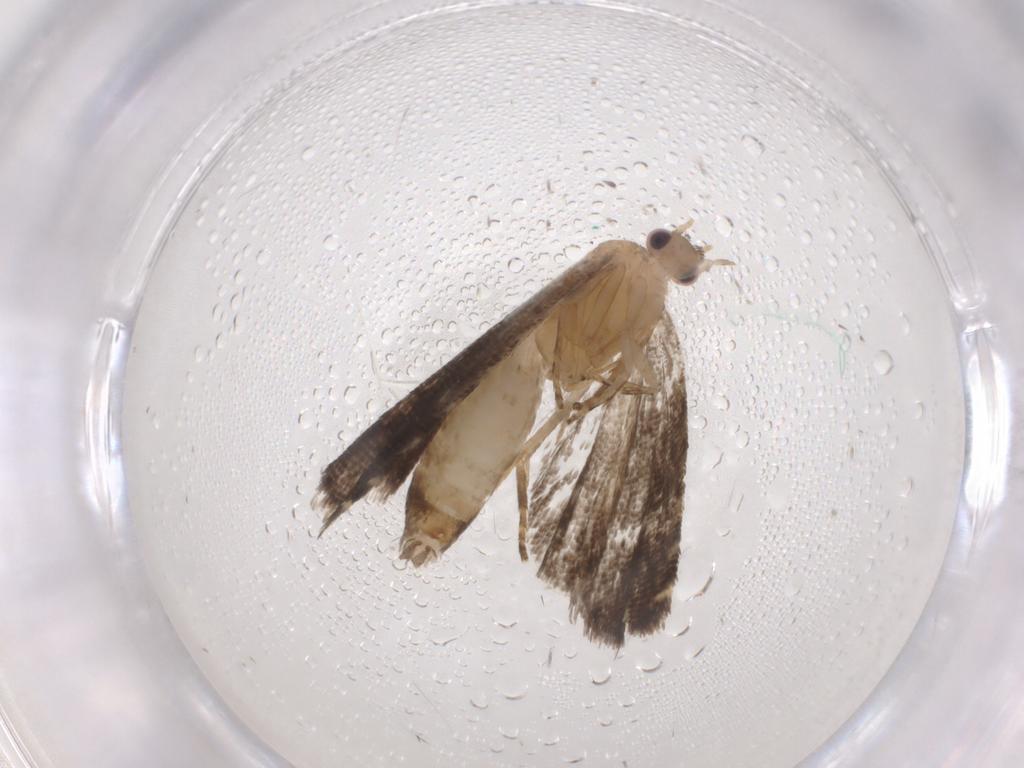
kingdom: Animalia
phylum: Arthropoda
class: Insecta
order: Lepidoptera
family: Tortricidae
